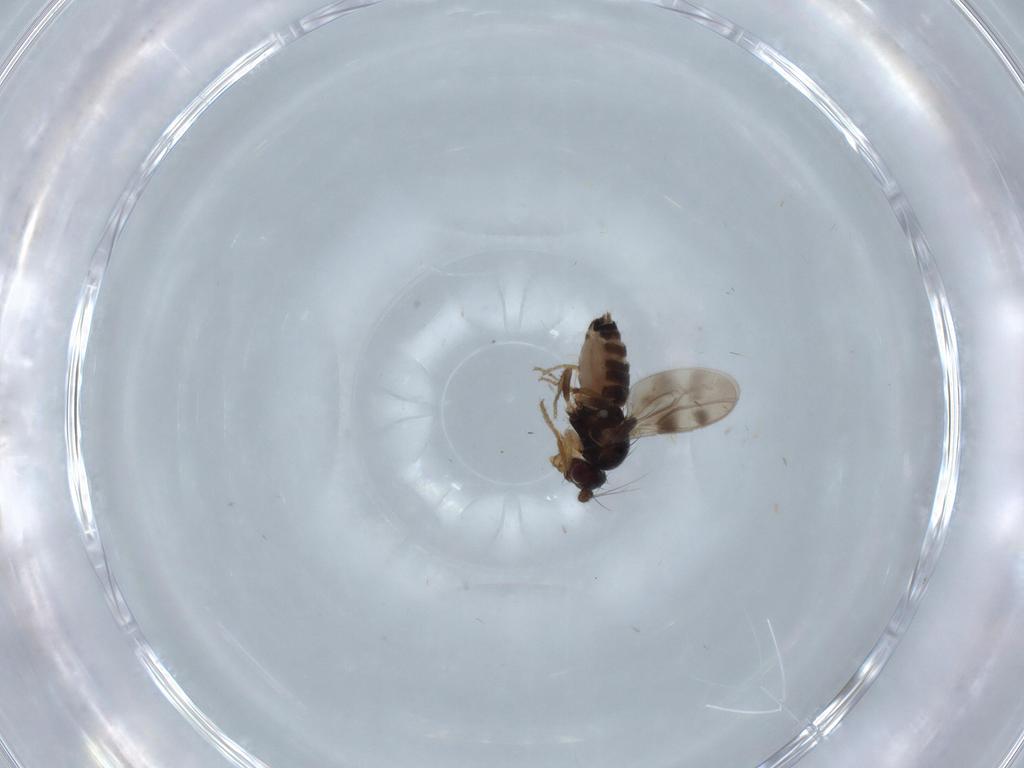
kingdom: Animalia
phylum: Arthropoda
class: Insecta
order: Diptera
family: Sphaeroceridae
